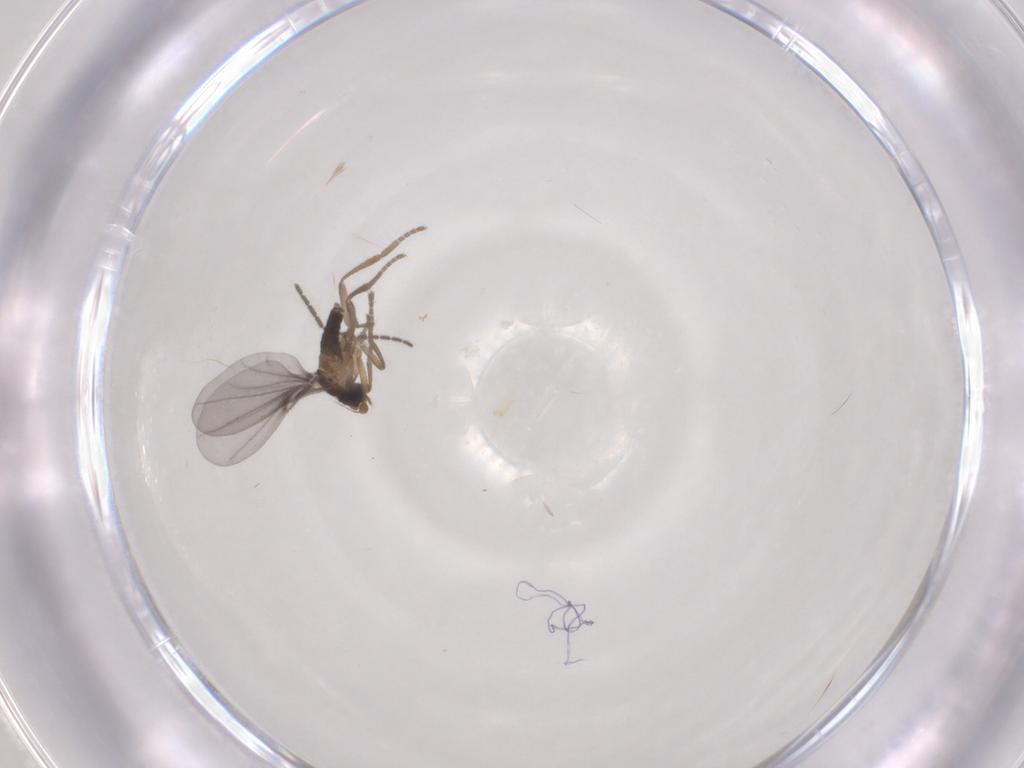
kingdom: Animalia
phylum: Arthropoda
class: Insecta
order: Diptera
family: Sciaridae
